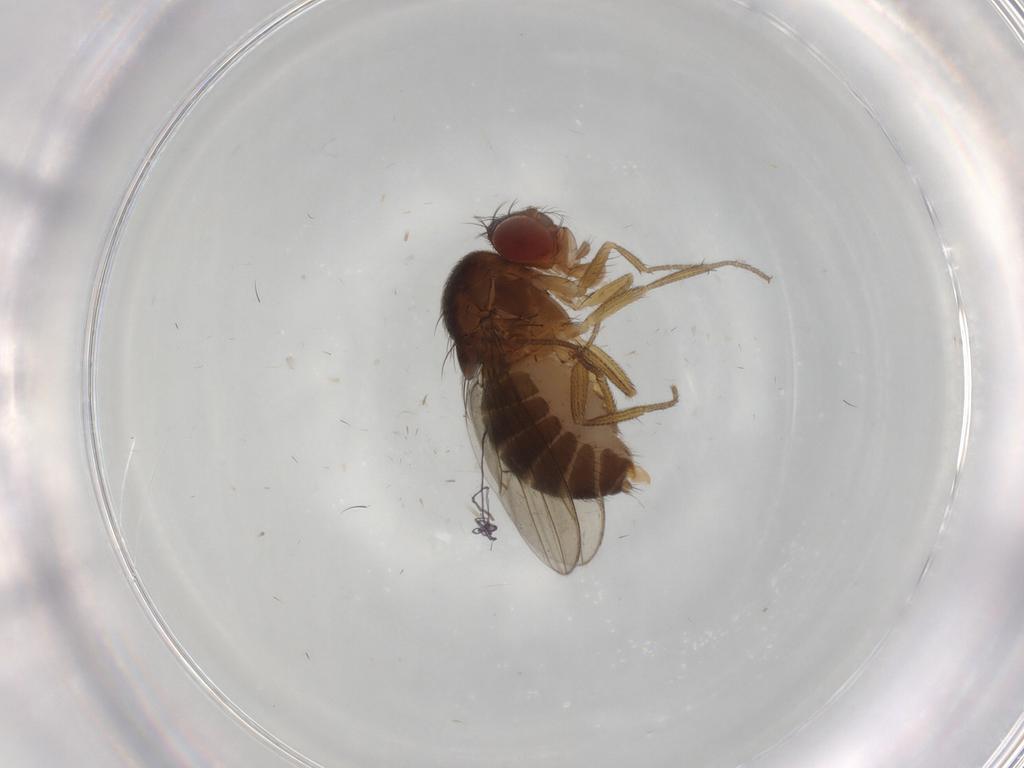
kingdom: Animalia
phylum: Arthropoda
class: Insecta
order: Diptera
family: Drosophilidae
